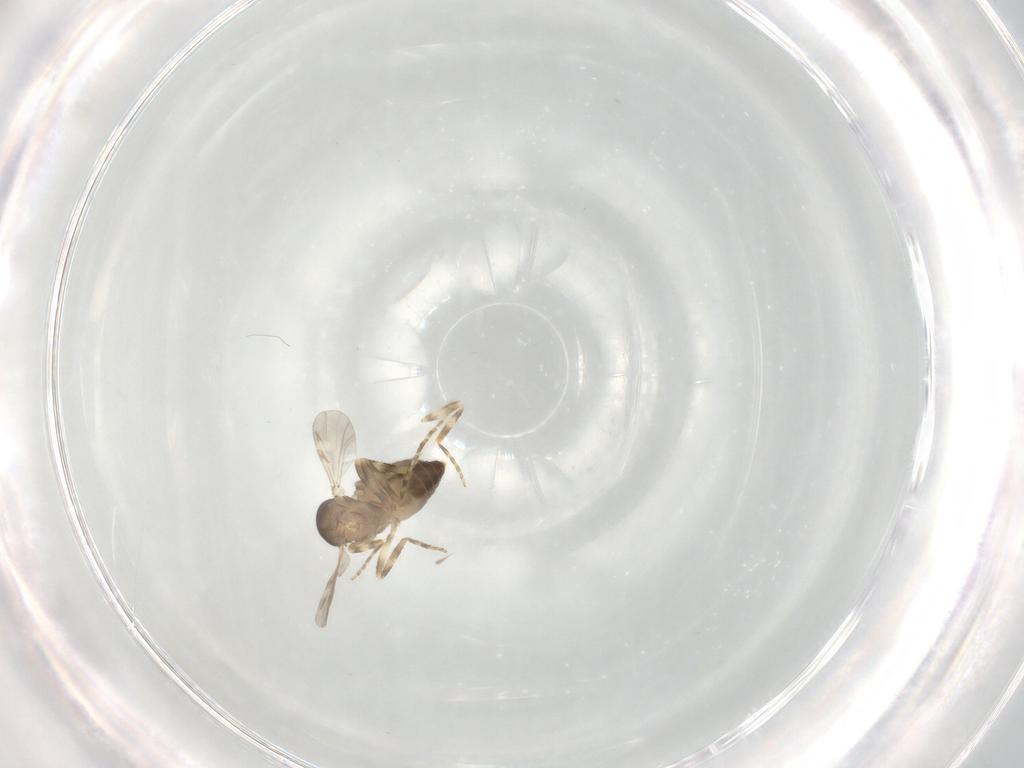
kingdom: Animalia
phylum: Arthropoda
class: Insecta
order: Diptera
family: Ceratopogonidae
